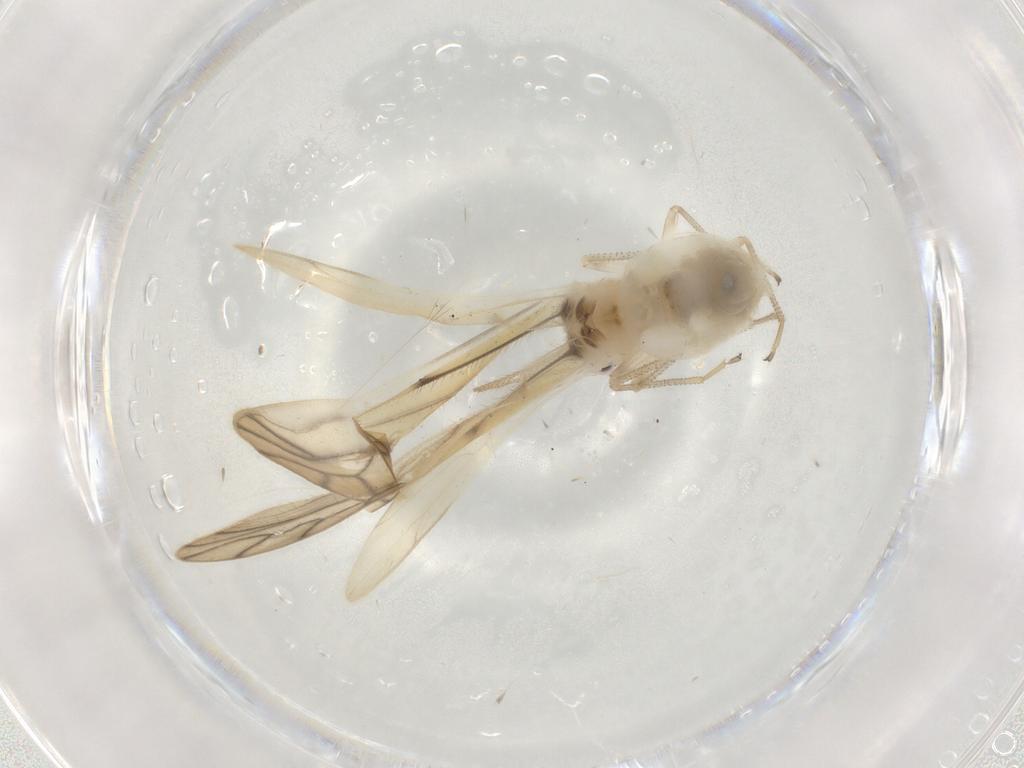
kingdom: Animalia
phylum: Arthropoda
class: Insecta
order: Psocodea
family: Caeciliusidae
